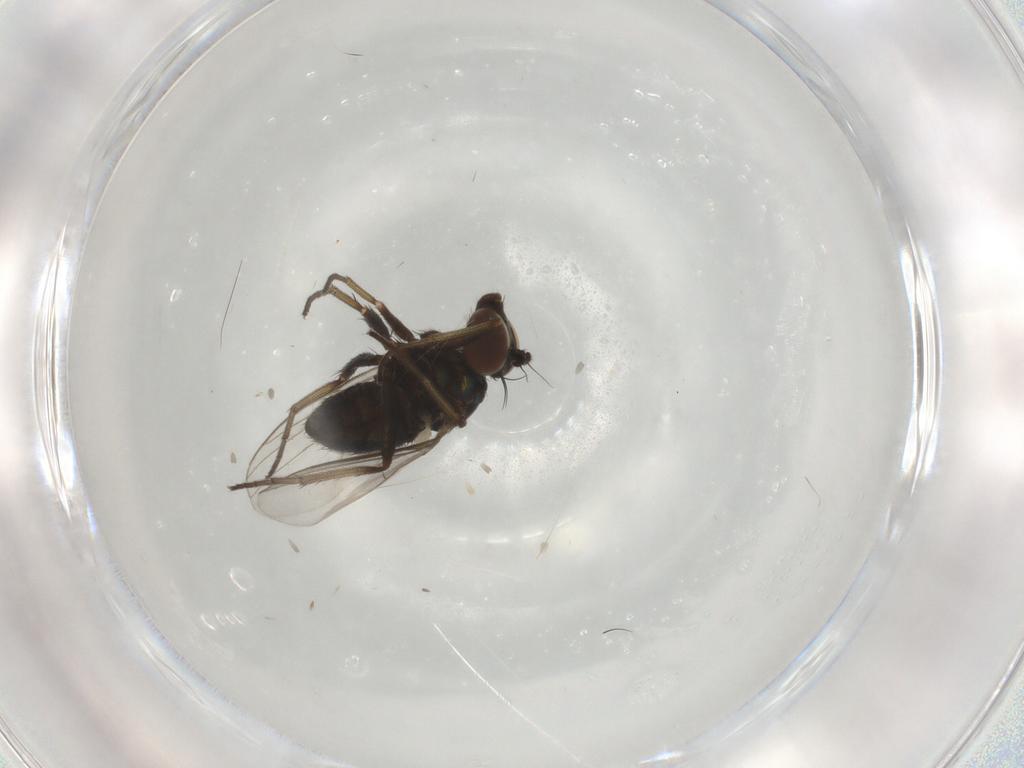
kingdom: Animalia
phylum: Arthropoda
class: Insecta
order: Diptera
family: Dolichopodidae
